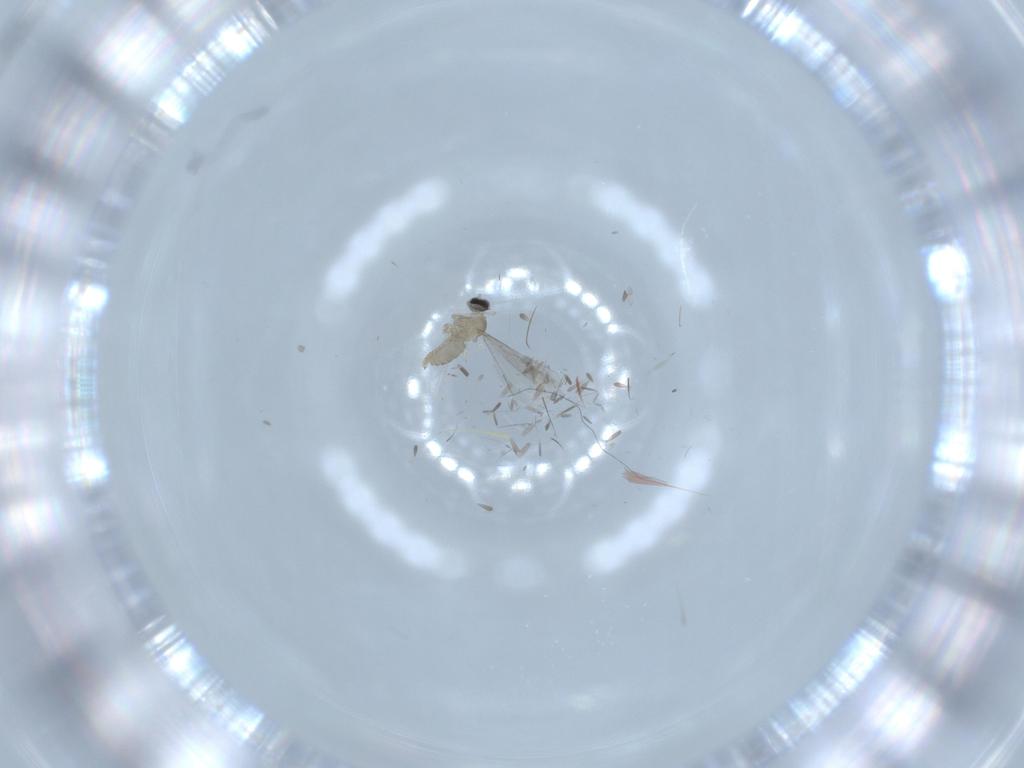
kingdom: Animalia
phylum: Arthropoda
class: Insecta
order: Diptera
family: Cecidomyiidae
